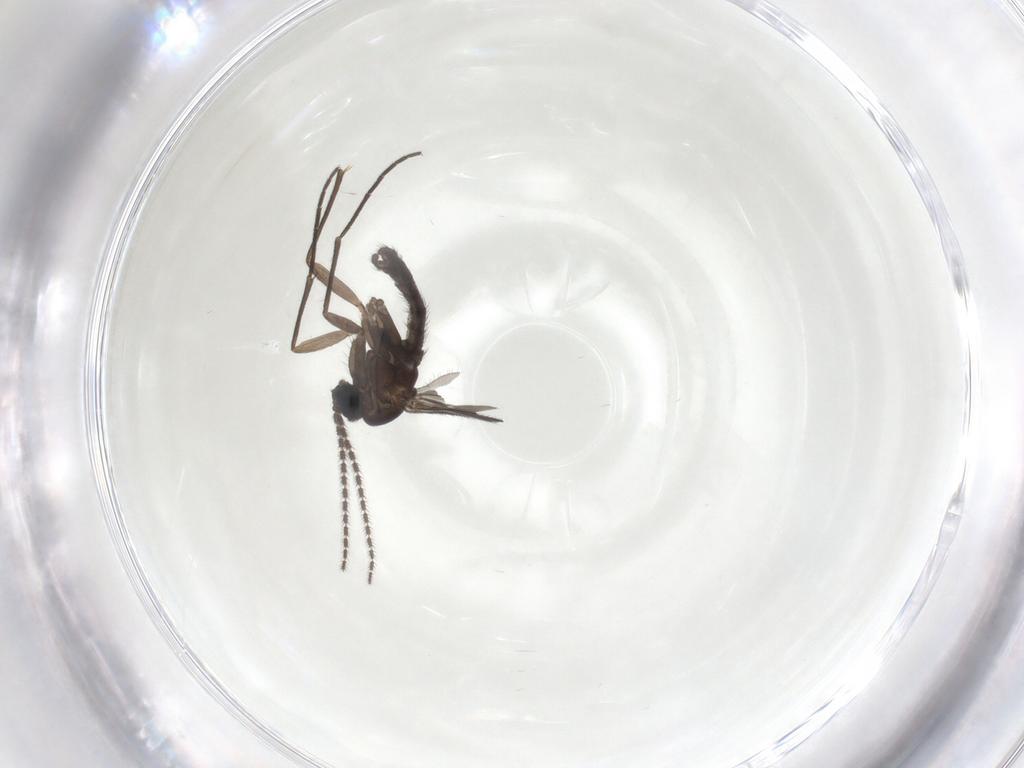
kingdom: Animalia
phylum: Arthropoda
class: Insecta
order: Diptera
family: Sciaridae
